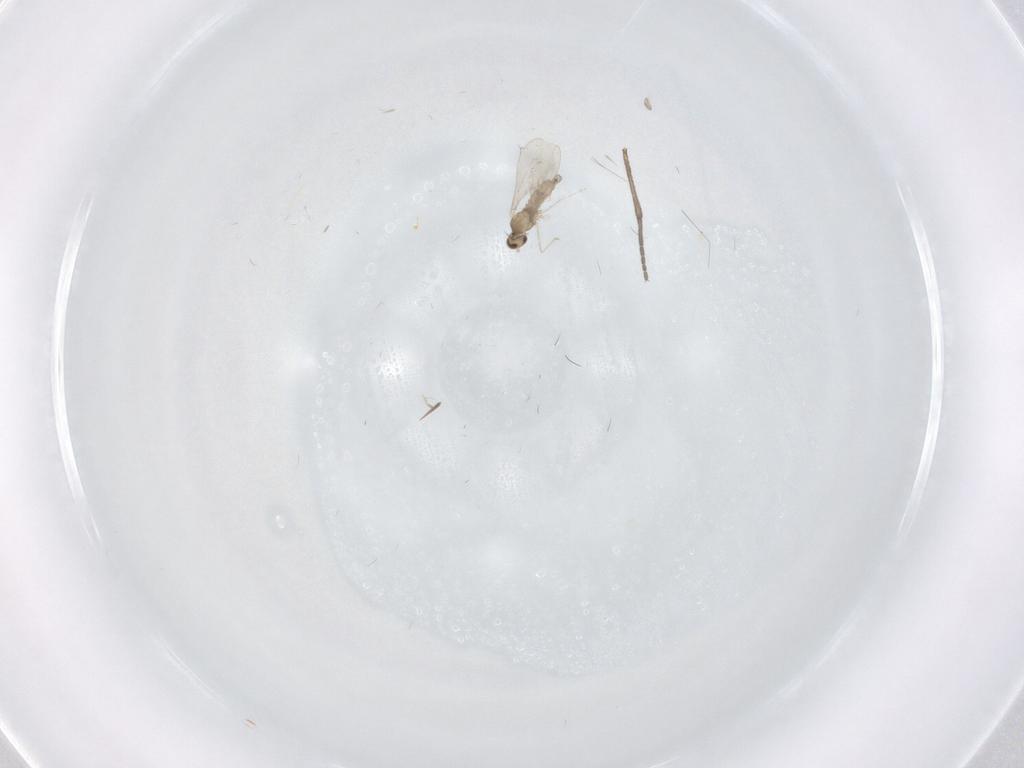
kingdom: Animalia
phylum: Arthropoda
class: Insecta
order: Diptera
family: Sciaridae
